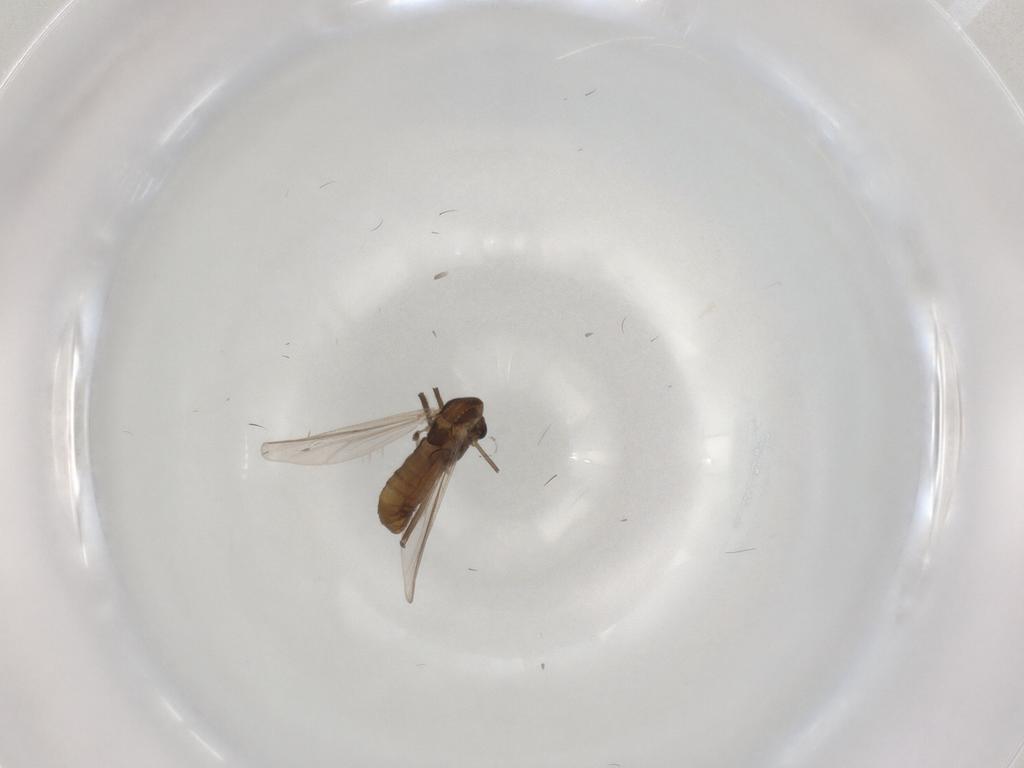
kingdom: Animalia
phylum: Arthropoda
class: Insecta
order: Diptera
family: Chironomidae
